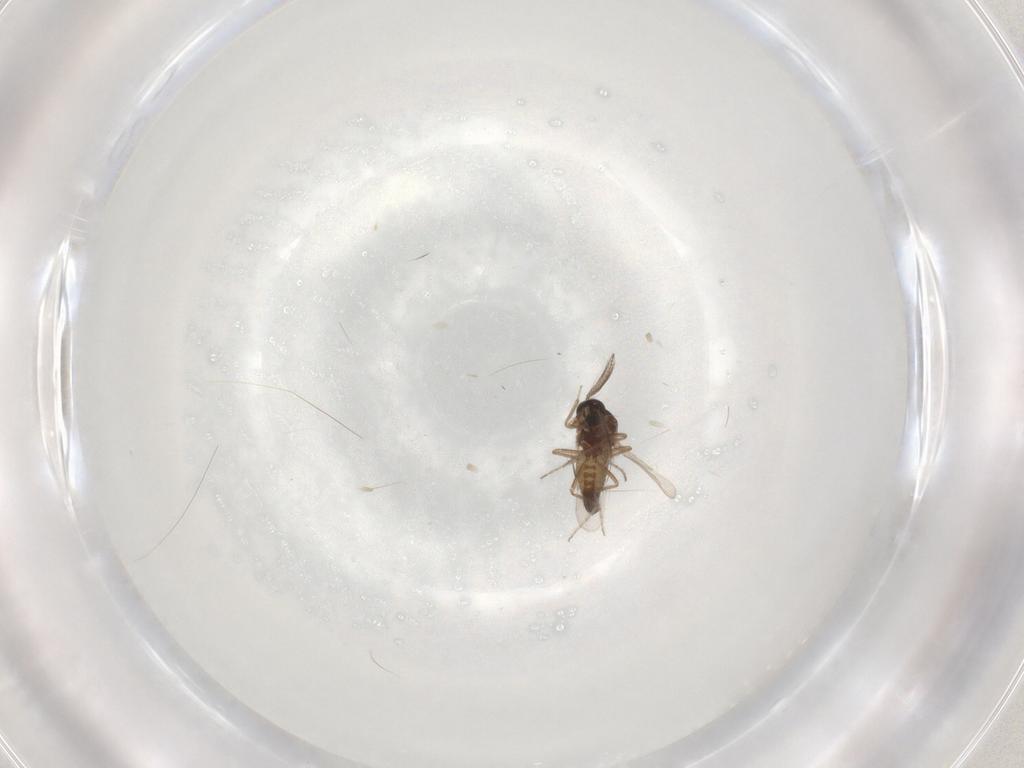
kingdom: Animalia
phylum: Arthropoda
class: Insecta
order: Diptera
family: Ceratopogonidae
